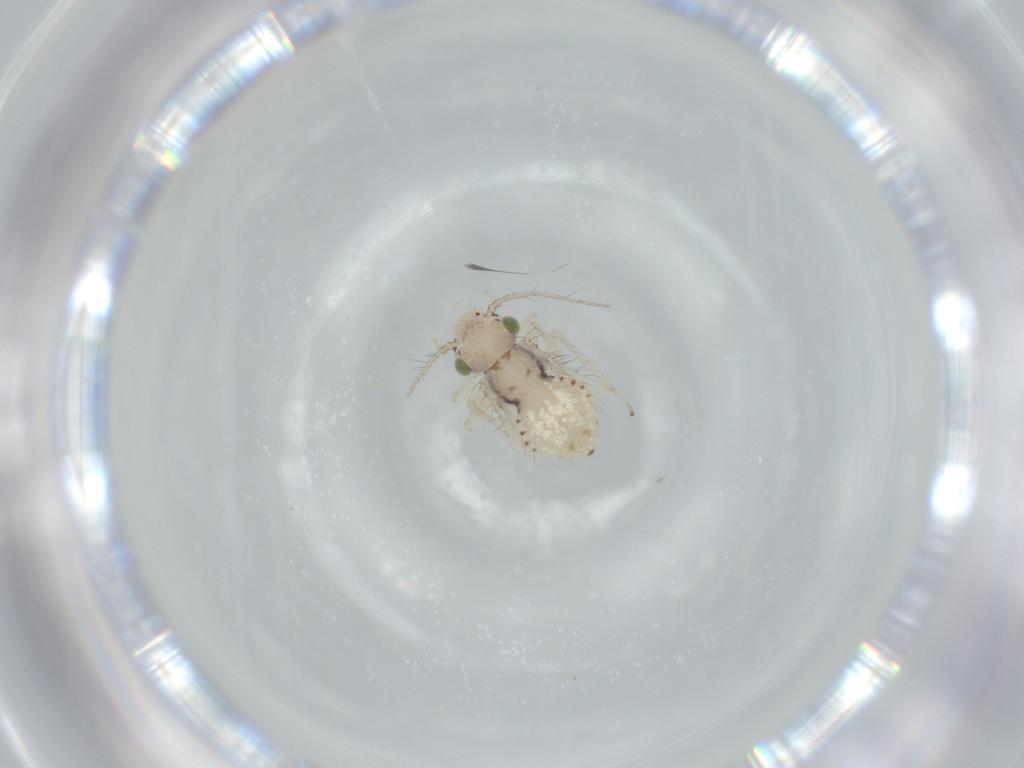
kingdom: Animalia
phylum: Arthropoda
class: Insecta
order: Psocodea
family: Pseudocaeciliidae
